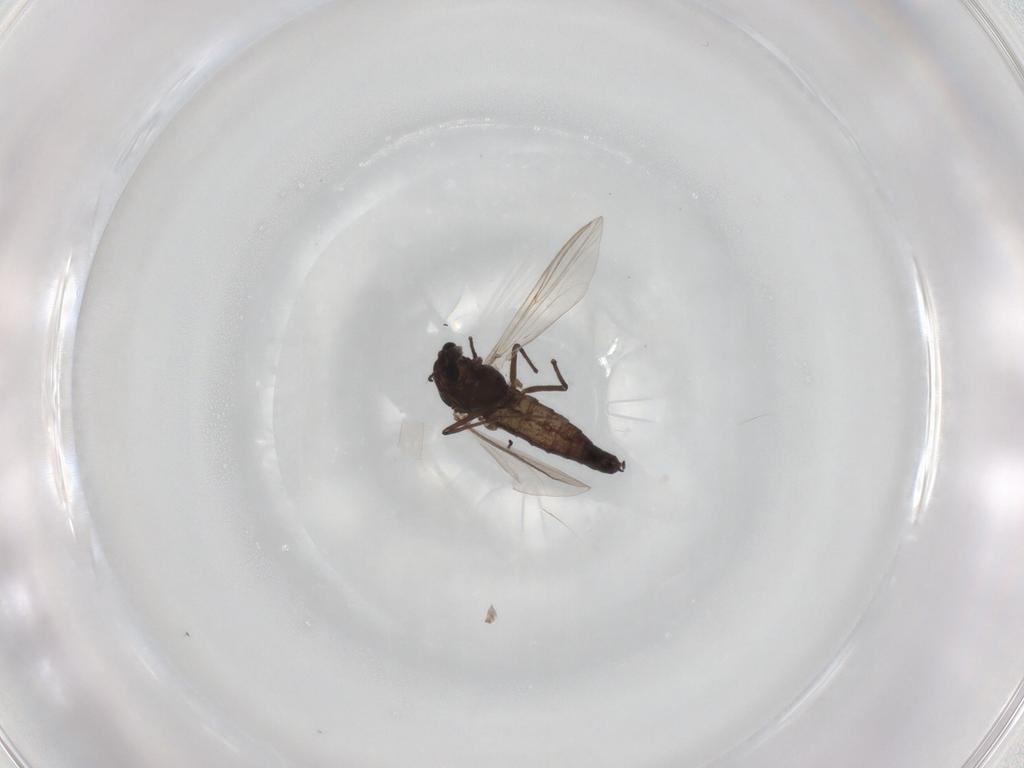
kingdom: Animalia
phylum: Arthropoda
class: Insecta
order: Diptera
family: Chironomidae
